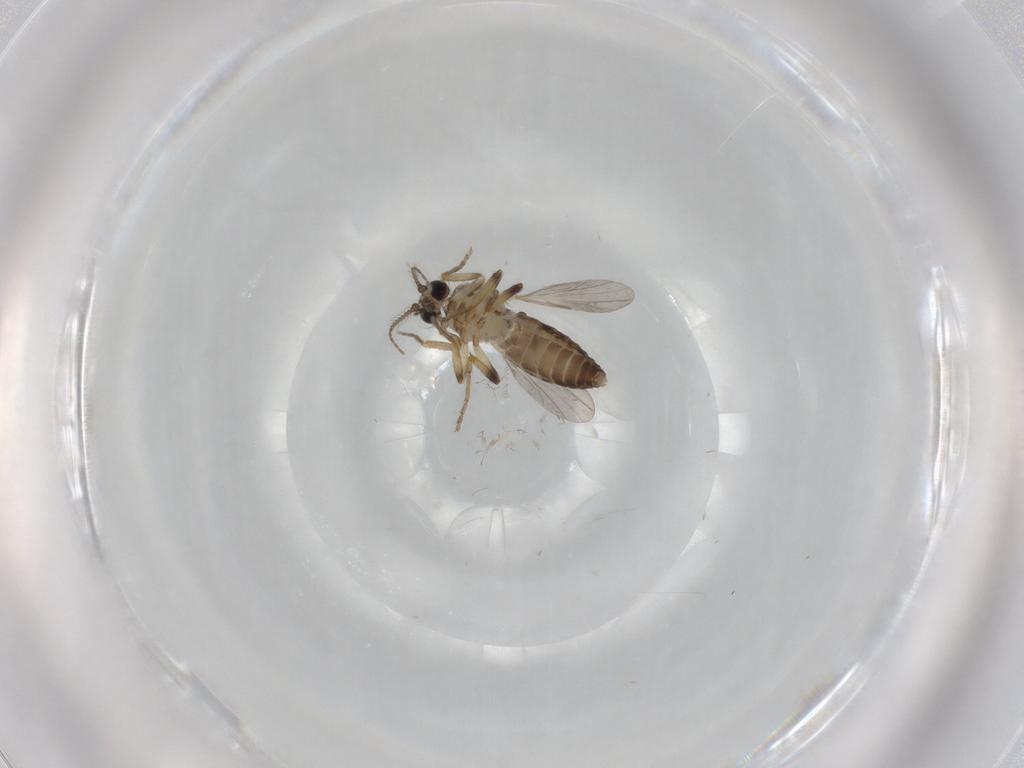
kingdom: Animalia
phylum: Arthropoda
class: Insecta
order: Diptera
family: Ceratopogonidae
